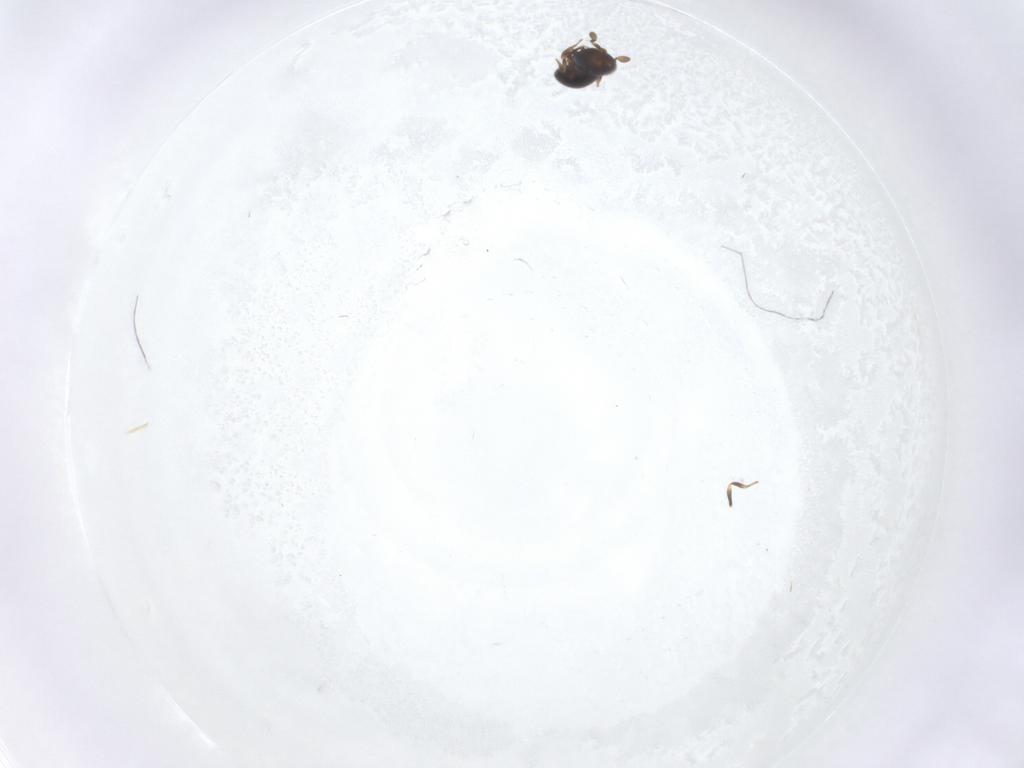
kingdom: Animalia
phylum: Arthropoda
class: Insecta
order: Hymenoptera
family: Scelionidae
